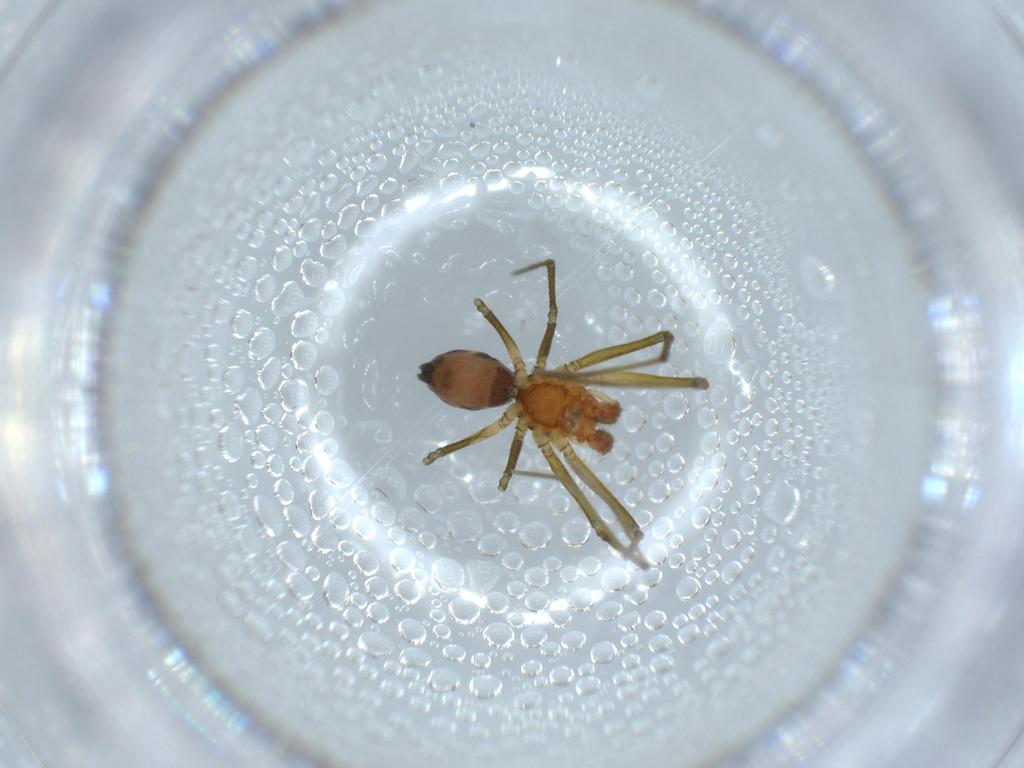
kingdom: Animalia
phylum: Arthropoda
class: Arachnida
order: Araneae
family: Linyphiidae
